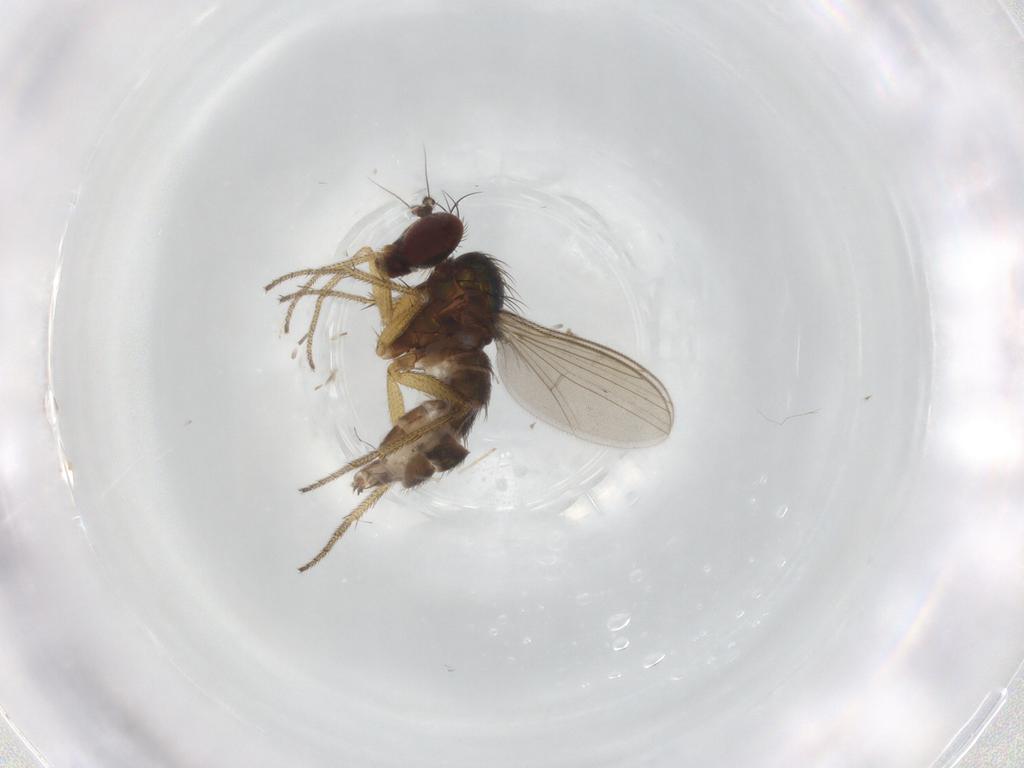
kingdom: Animalia
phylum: Arthropoda
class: Insecta
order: Diptera
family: Chironomidae
